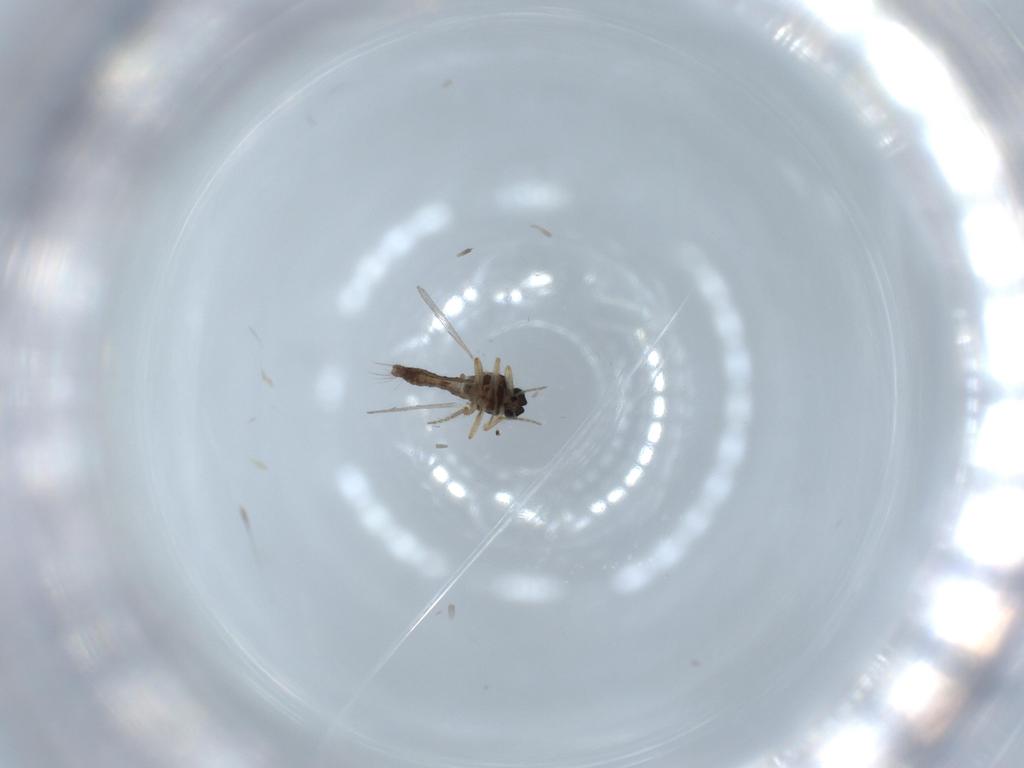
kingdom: Animalia
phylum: Arthropoda
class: Insecta
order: Diptera
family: Ceratopogonidae
